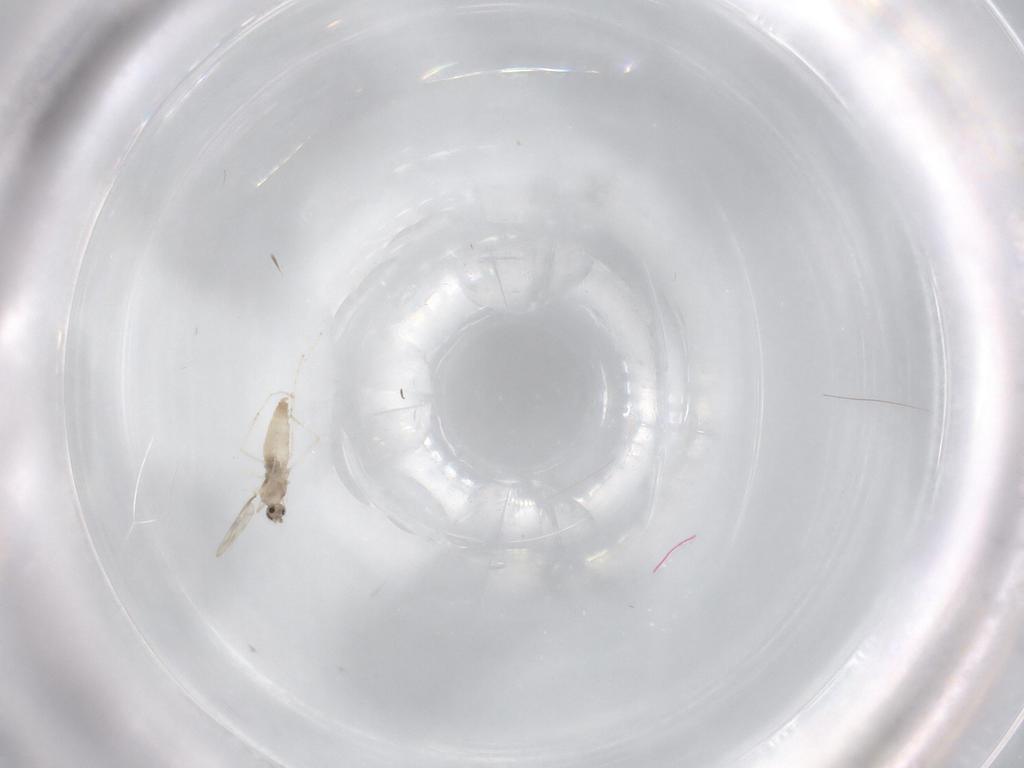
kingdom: Animalia
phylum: Arthropoda
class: Insecta
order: Diptera
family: Cecidomyiidae
